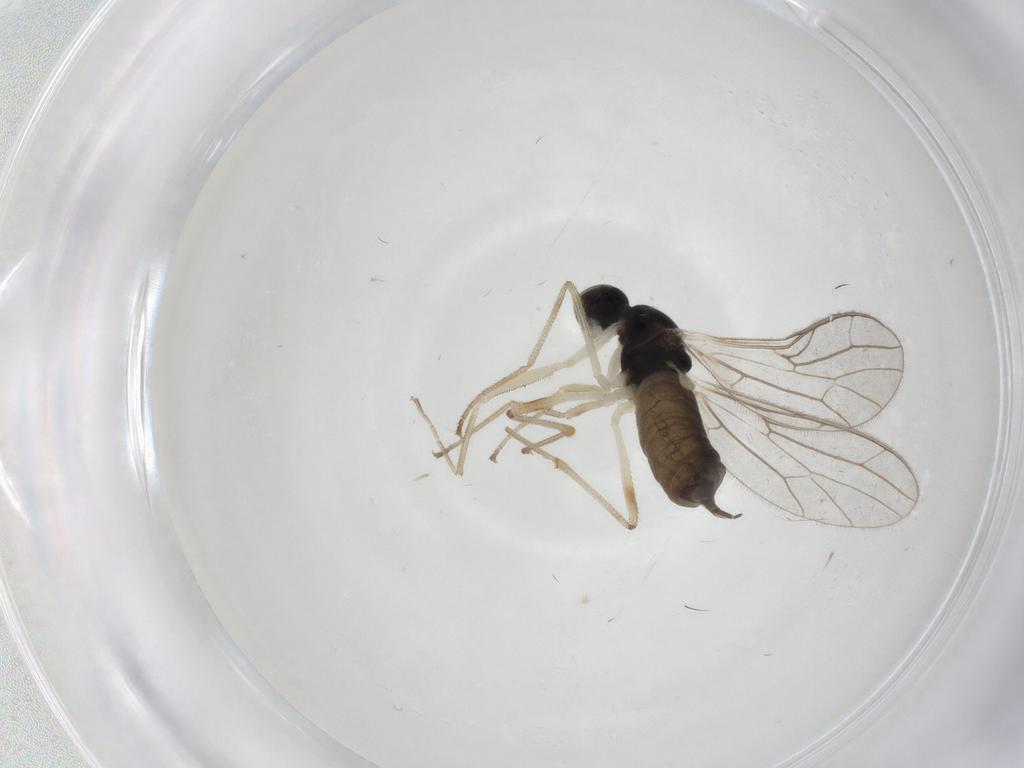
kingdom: Animalia
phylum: Arthropoda
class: Insecta
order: Diptera
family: Empididae
